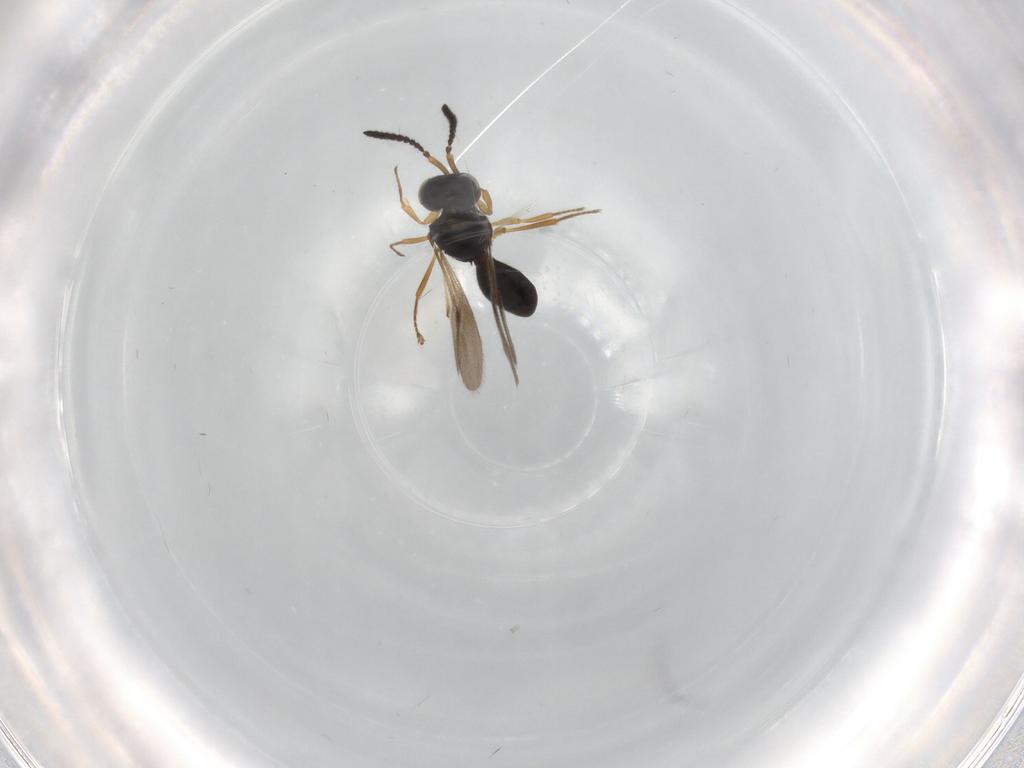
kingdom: Animalia
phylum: Arthropoda
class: Insecta
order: Hymenoptera
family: Scelionidae
